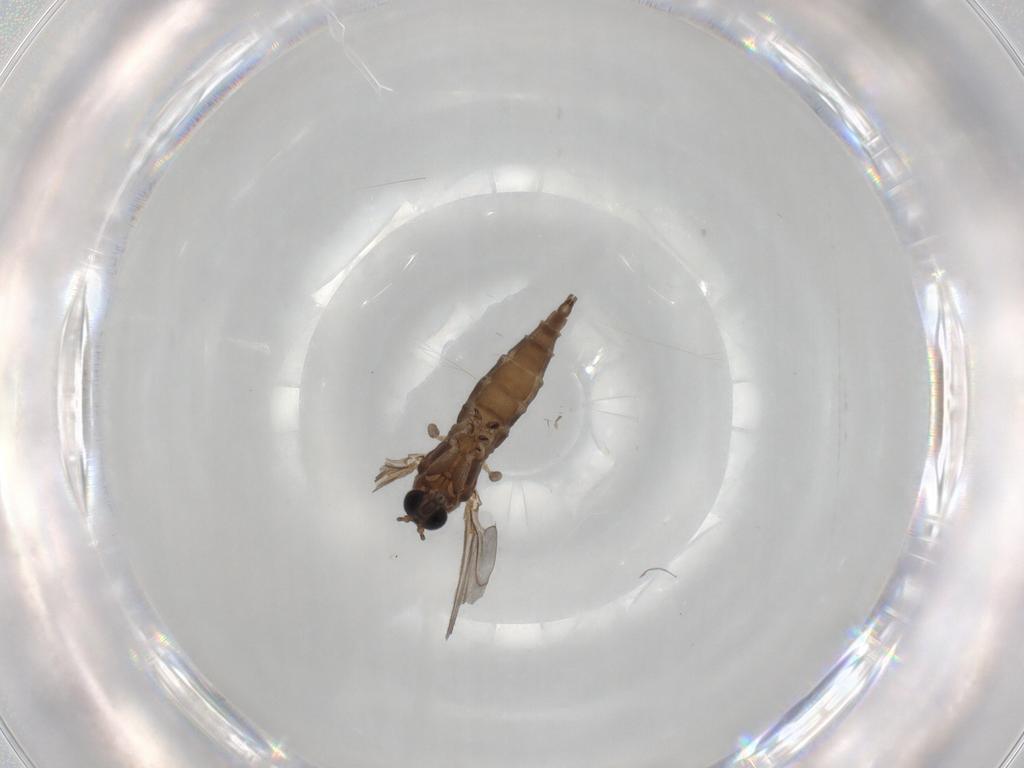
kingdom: Animalia
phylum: Arthropoda
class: Insecta
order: Diptera
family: Sciaridae
